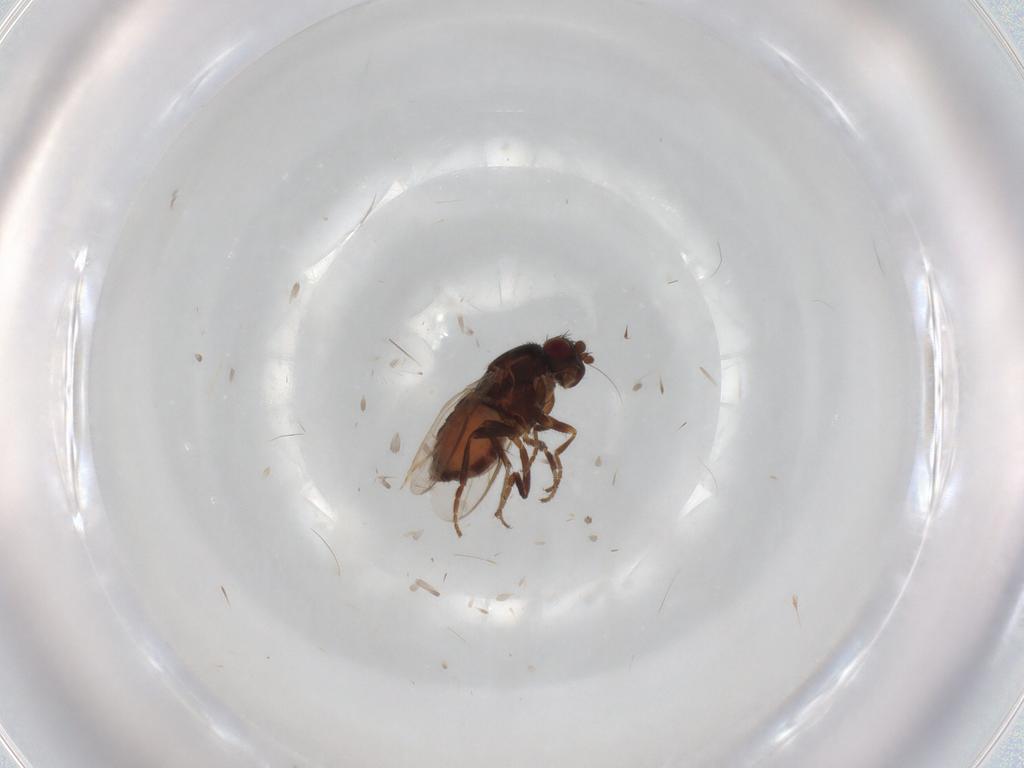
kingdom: Animalia
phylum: Arthropoda
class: Insecta
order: Diptera
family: Sphaeroceridae
